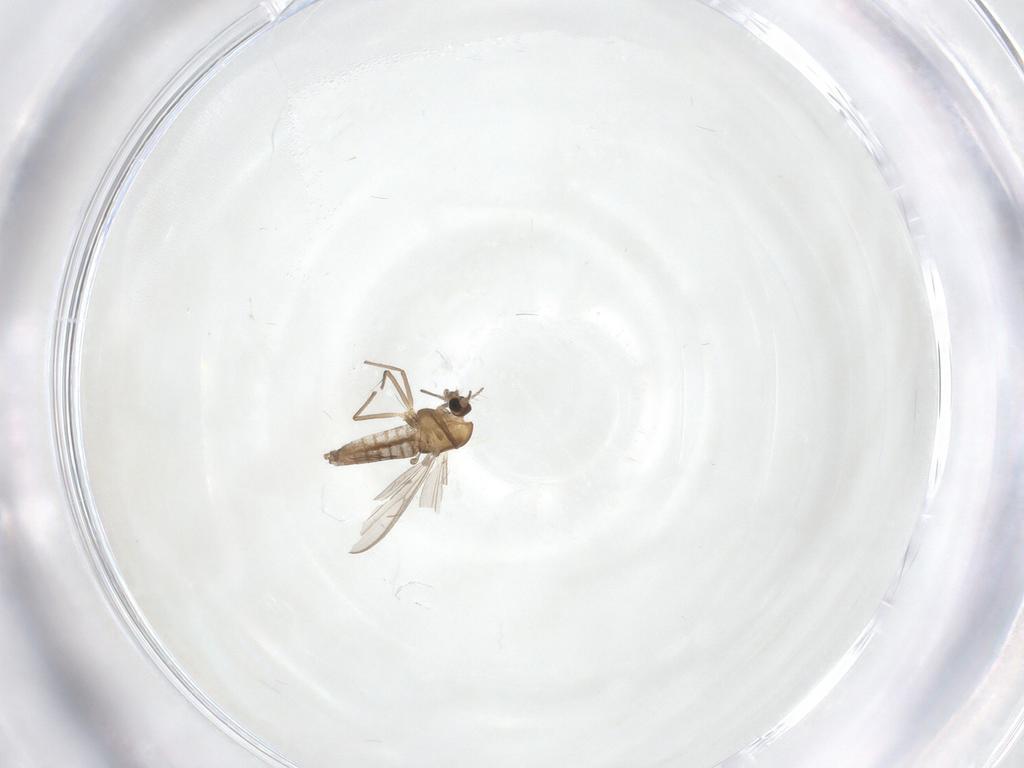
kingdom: Animalia
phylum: Arthropoda
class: Insecta
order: Diptera
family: Chironomidae
